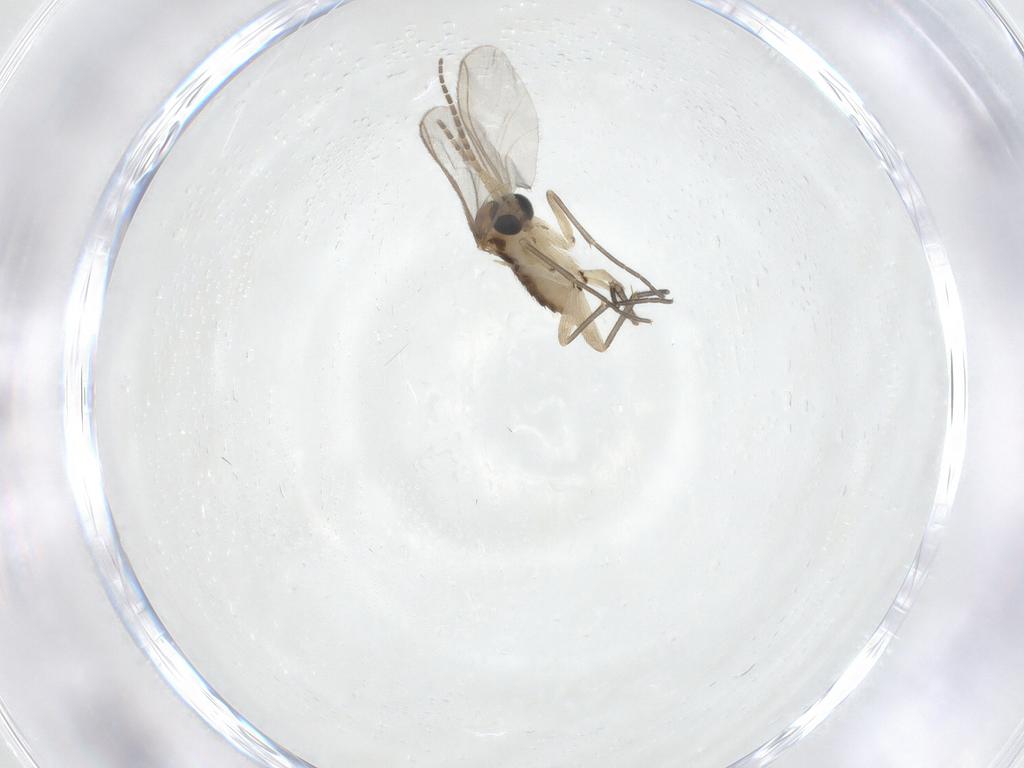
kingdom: Animalia
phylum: Arthropoda
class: Insecta
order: Diptera
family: Sciaridae
